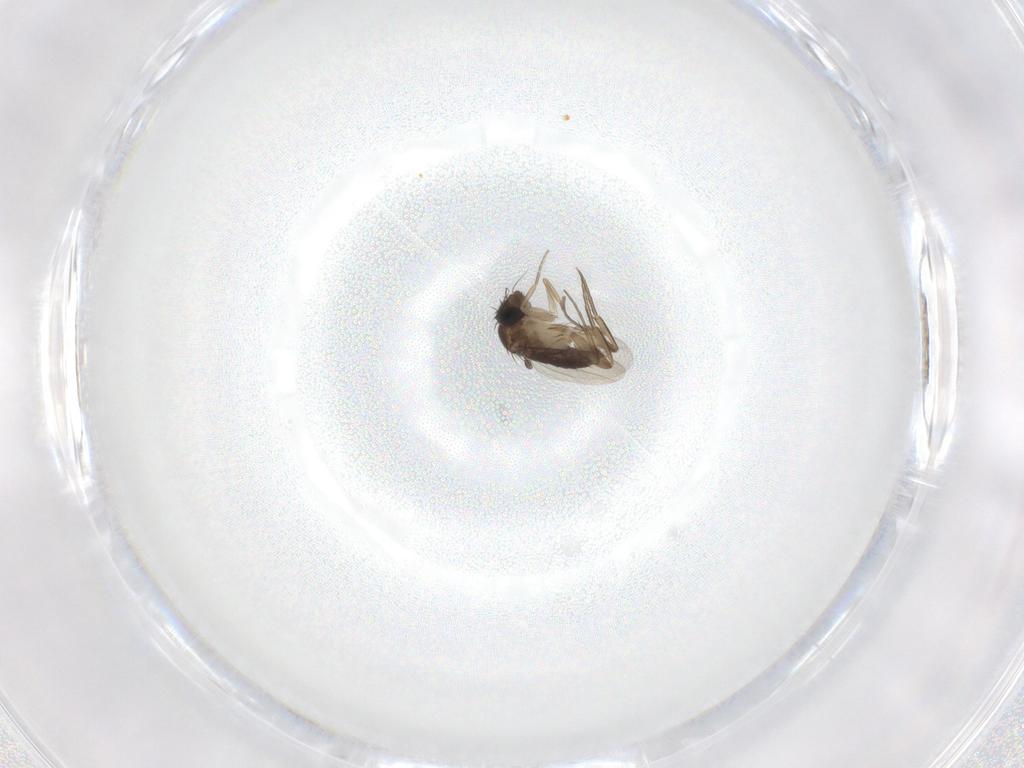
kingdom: Animalia
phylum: Arthropoda
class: Insecta
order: Diptera
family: Phoridae
